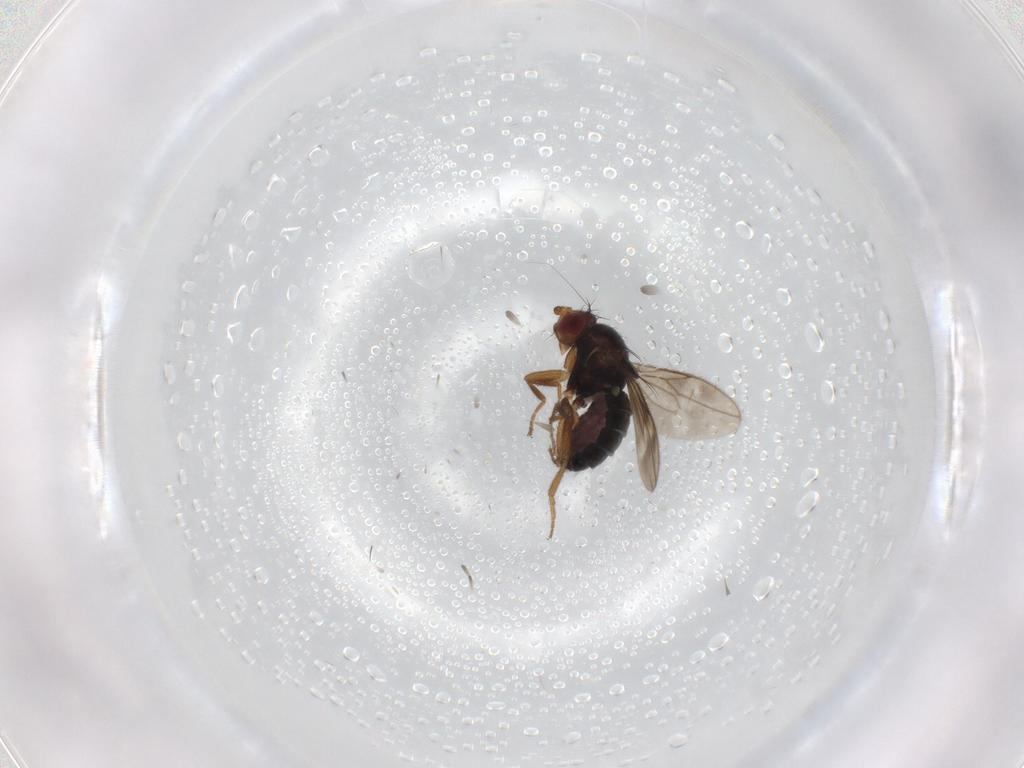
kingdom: Animalia
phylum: Arthropoda
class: Insecta
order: Diptera
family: Sphaeroceridae
